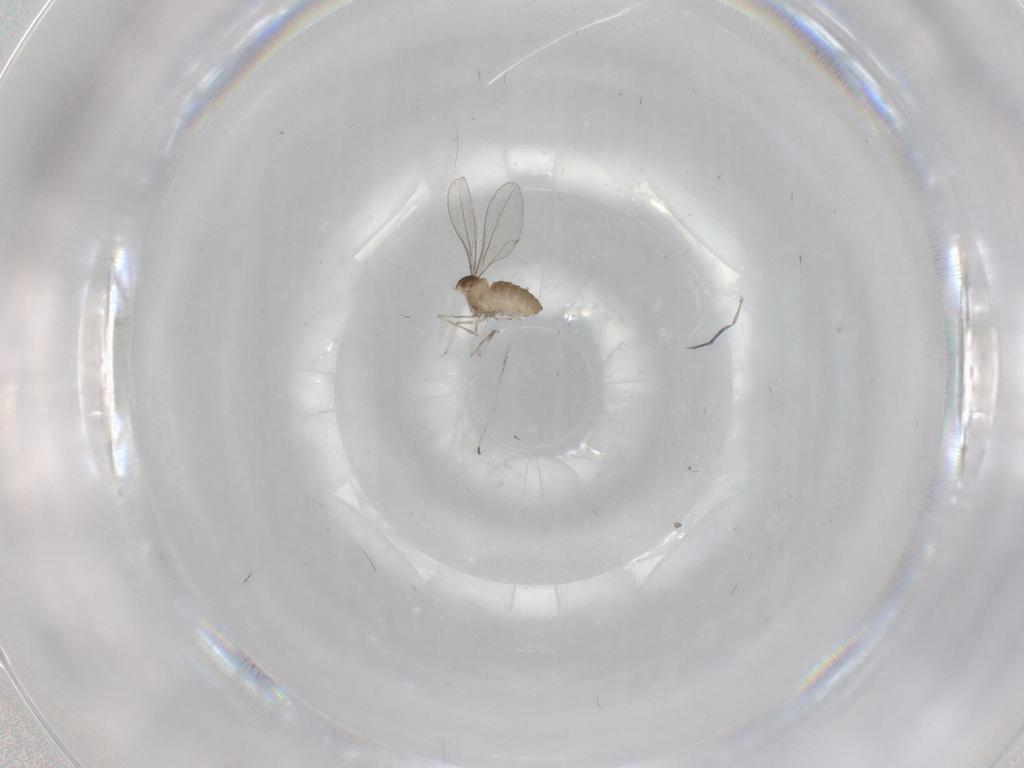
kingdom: Animalia
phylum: Arthropoda
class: Insecta
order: Diptera
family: Cecidomyiidae
